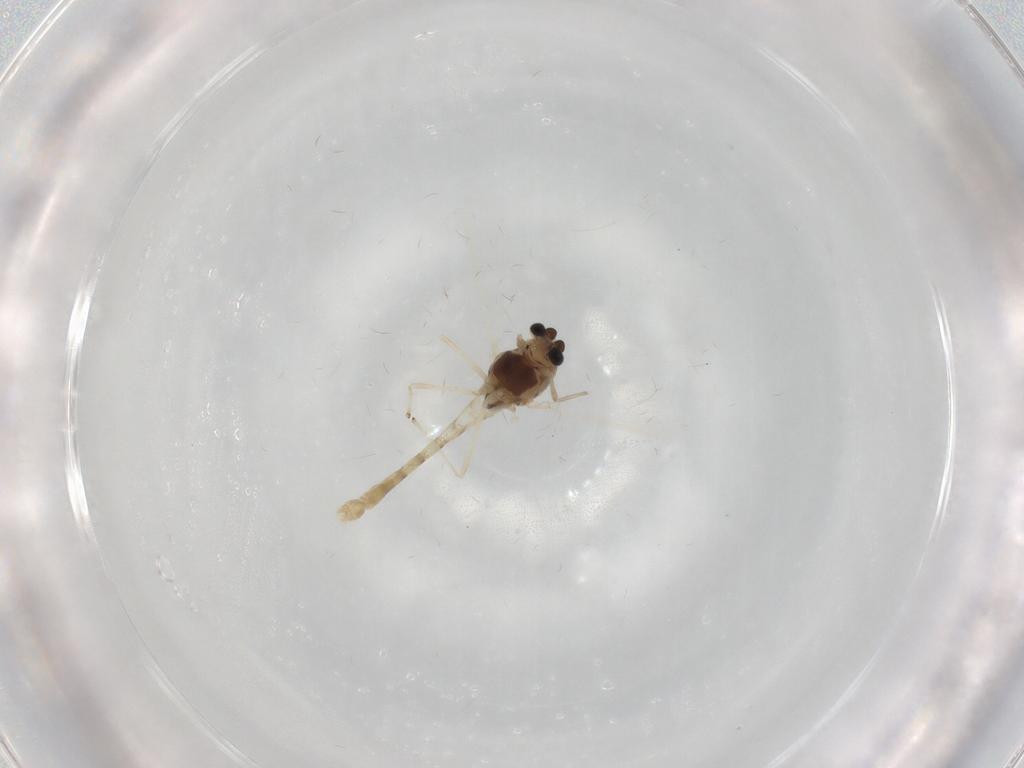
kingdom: Animalia
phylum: Arthropoda
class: Insecta
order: Diptera
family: Chironomidae
